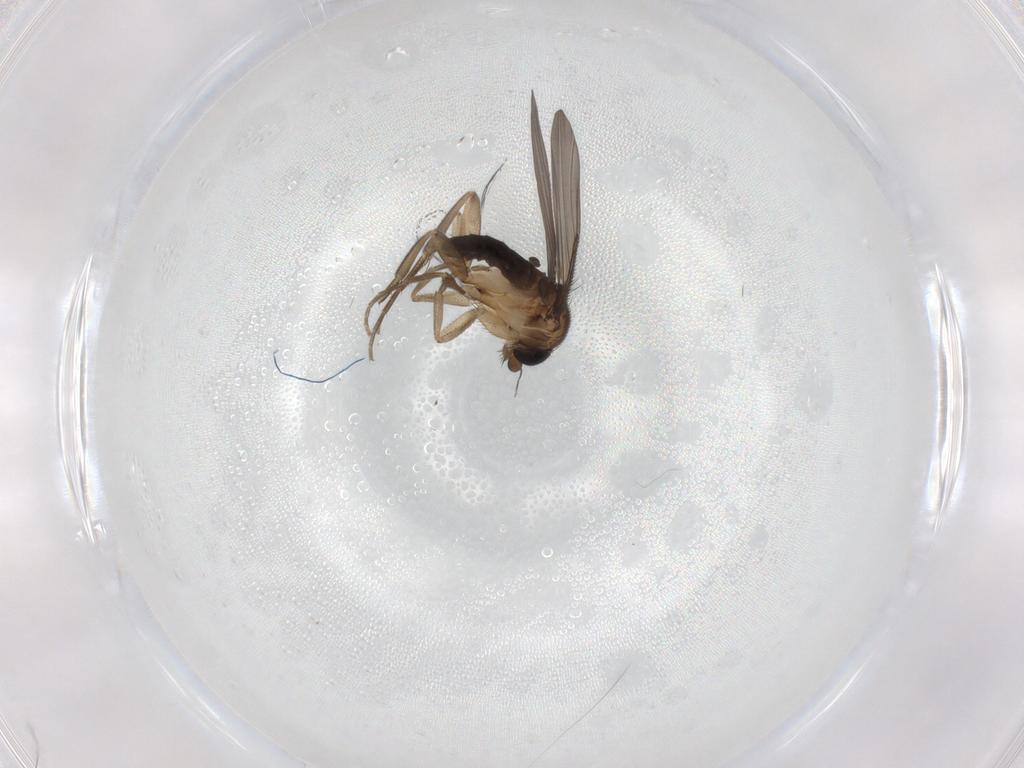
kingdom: Animalia
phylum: Arthropoda
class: Insecta
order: Diptera
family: Phoridae
